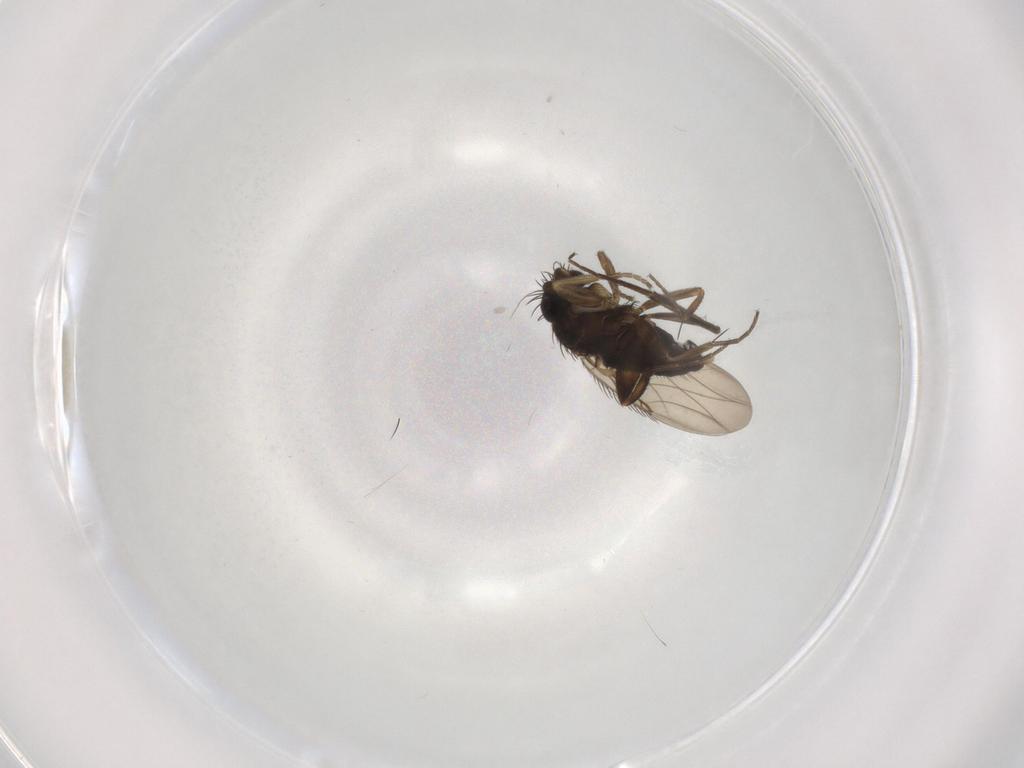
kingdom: Animalia
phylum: Arthropoda
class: Insecta
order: Diptera
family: Phoridae
